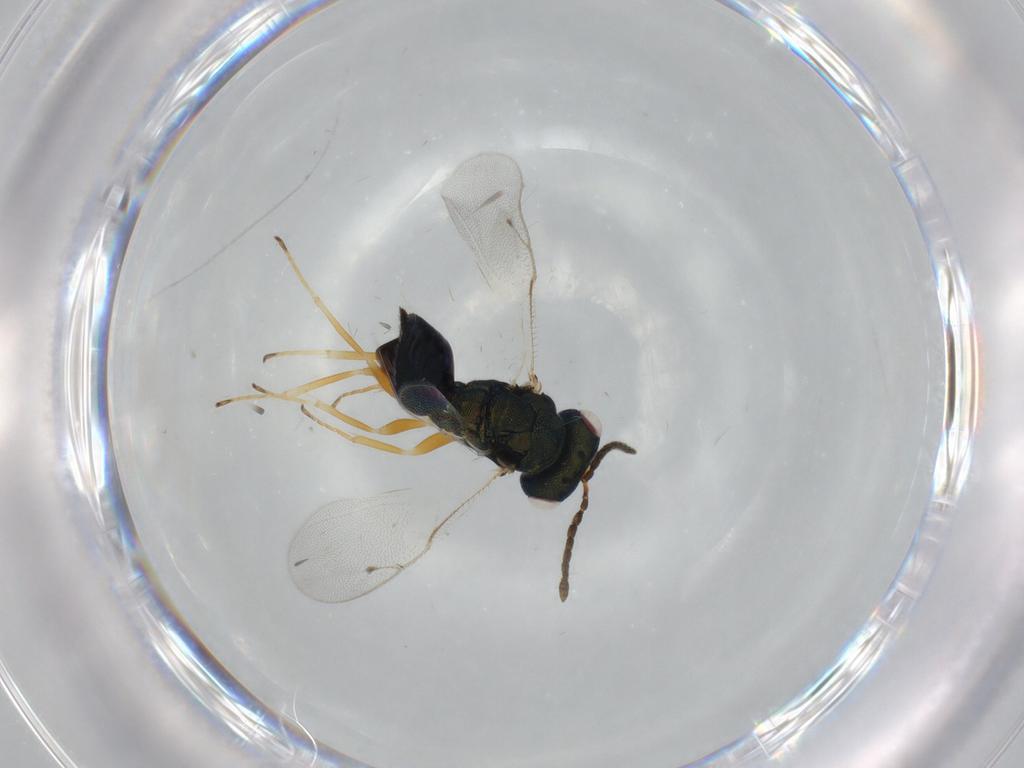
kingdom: Animalia
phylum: Arthropoda
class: Insecta
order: Hymenoptera
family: Pteromalidae
